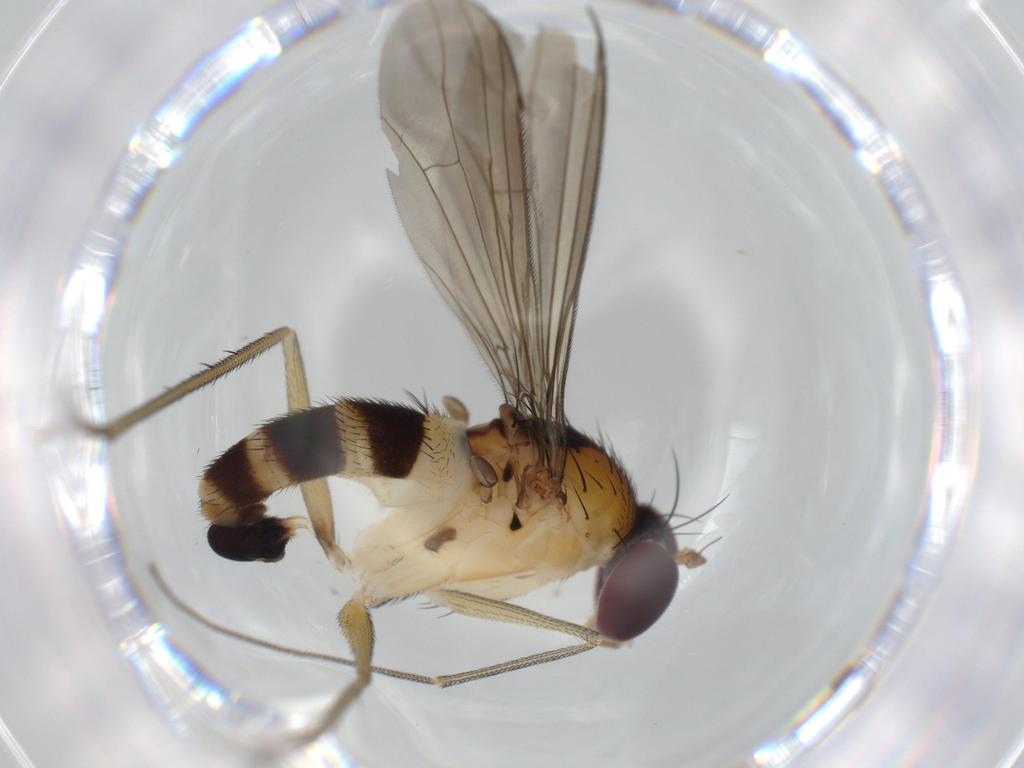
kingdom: Animalia
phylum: Arthropoda
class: Insecta
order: Diptera
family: Dolichopodidae
